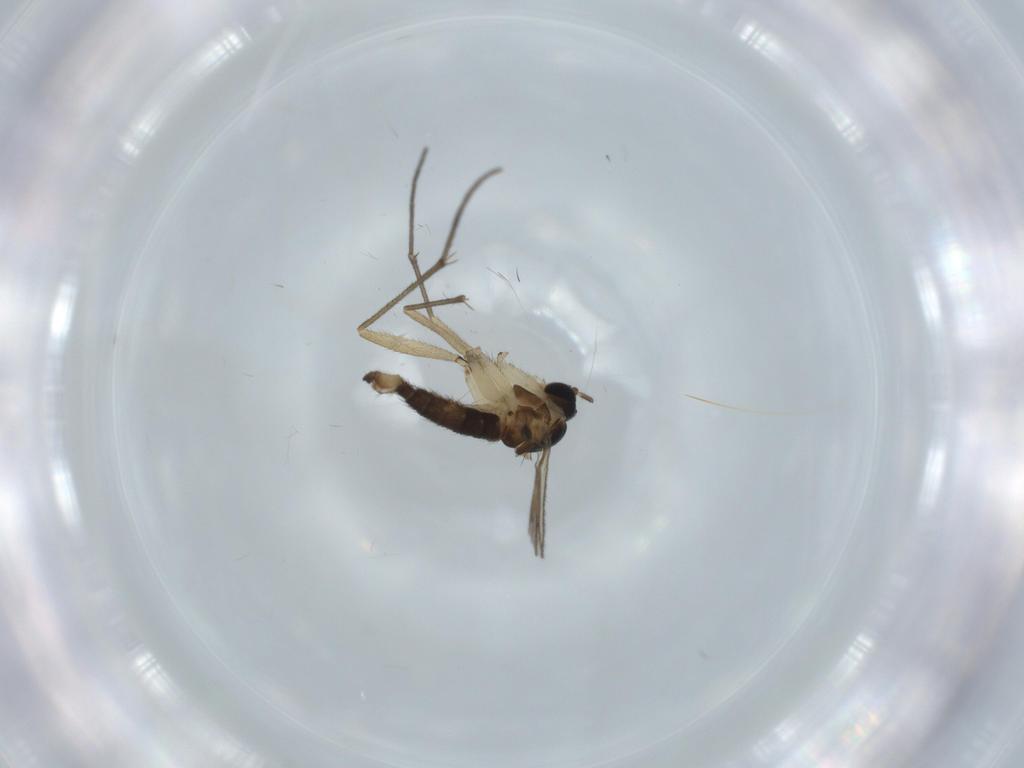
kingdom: Animalia
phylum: Arthropoda
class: Insecta
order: Diptera
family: Sciaridae
